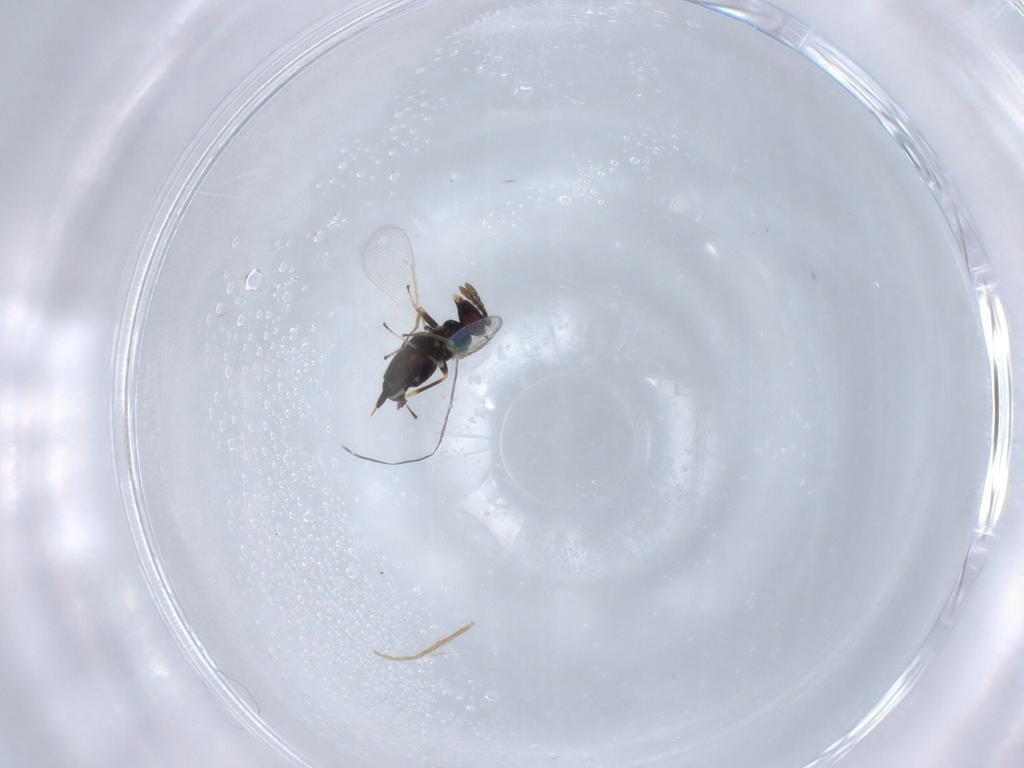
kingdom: Animalia
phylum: Arthropoda
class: Insecta
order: Hymenoptera
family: Eulophidae
